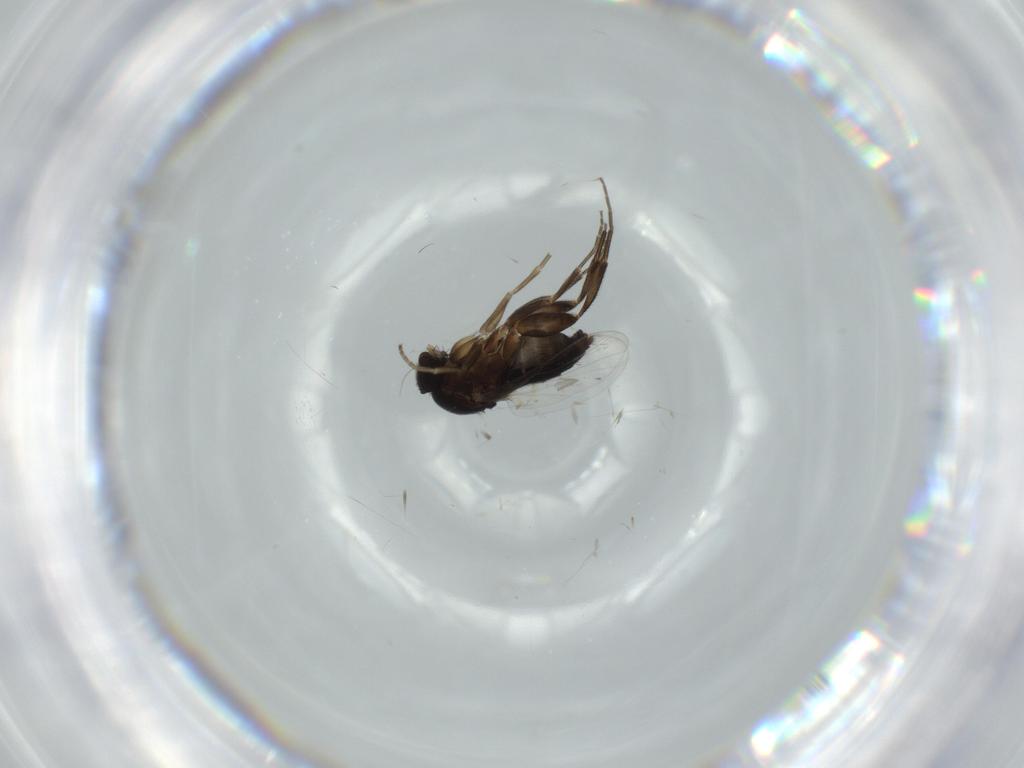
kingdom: Animalia
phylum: Arthropoda
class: Insecta
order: Diptera
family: Phoridae
